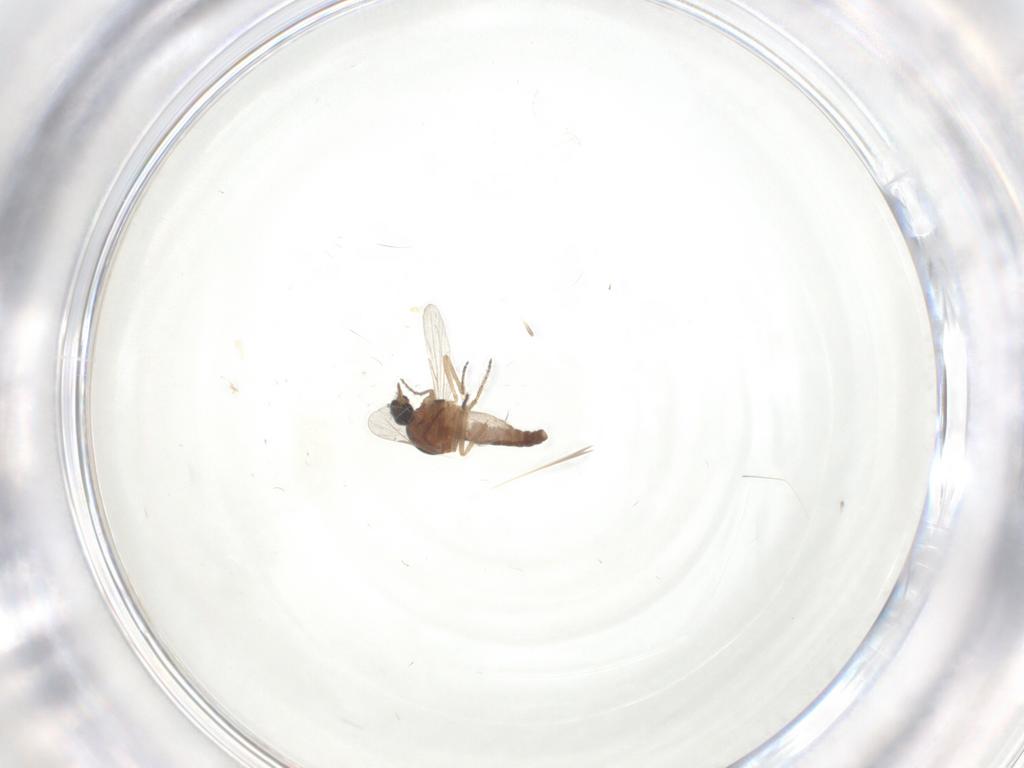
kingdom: Animalia
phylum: Arthropoda
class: Insecta
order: Diptera
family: Ceratopogonidae
